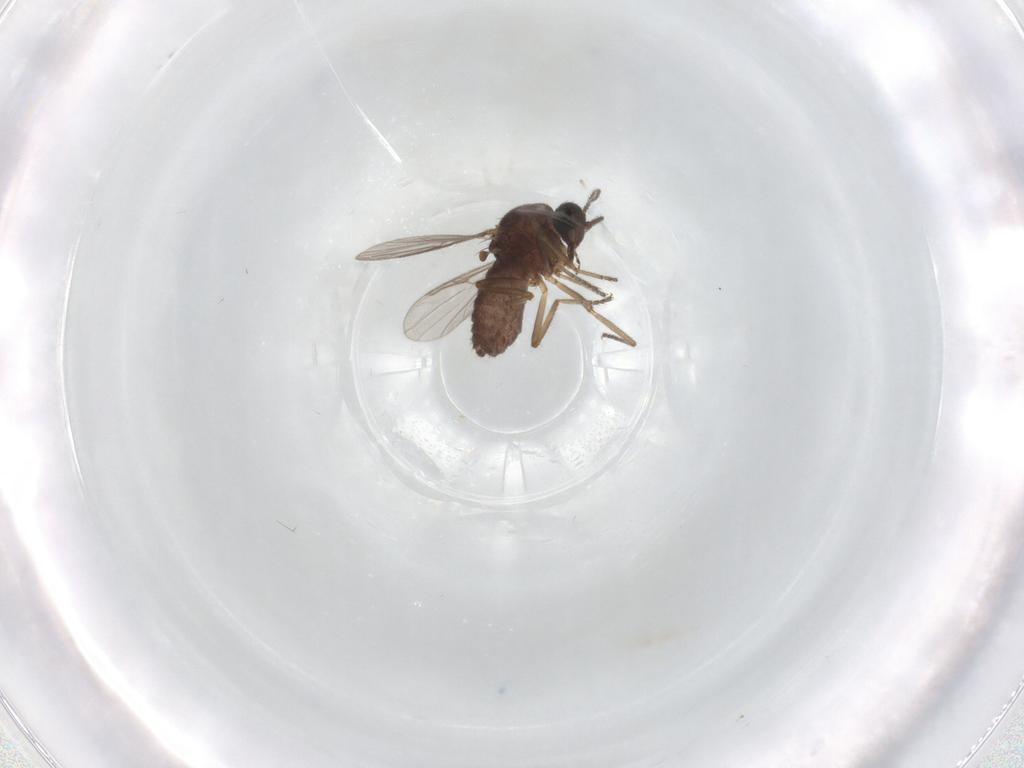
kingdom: Animalia
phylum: Arthropoda
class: Insecta
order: Diptera
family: Ceratopogonidae
